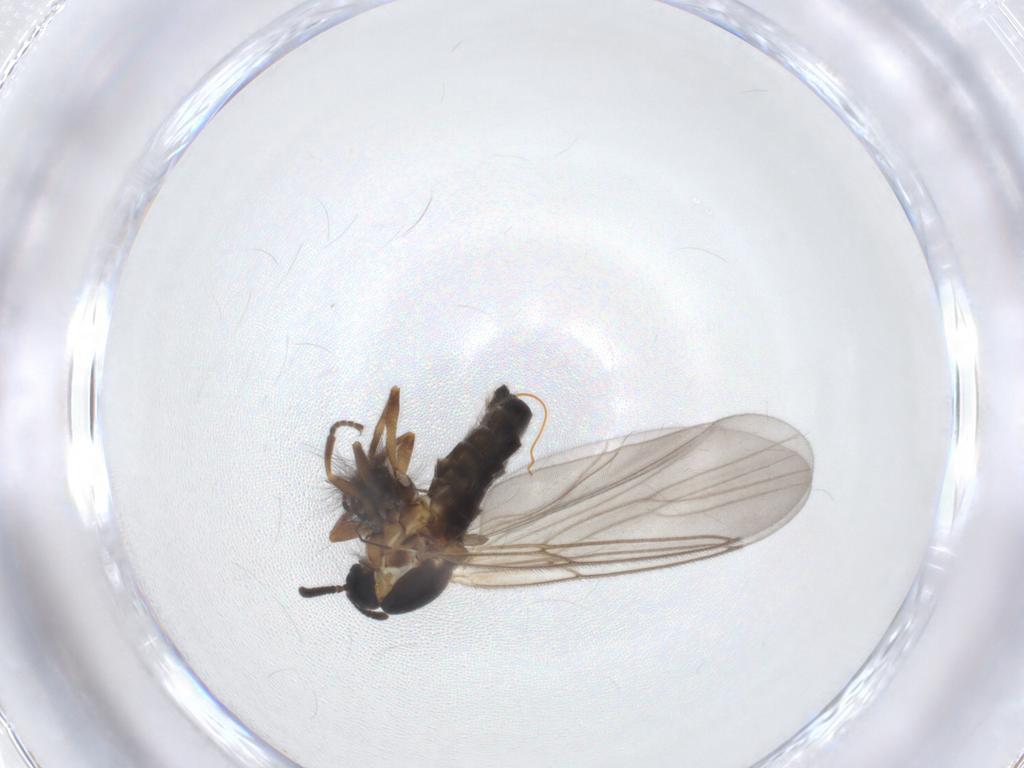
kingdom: Animalia
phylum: Arthropoda
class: Insecta
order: Diptera
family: Scatopsidae
